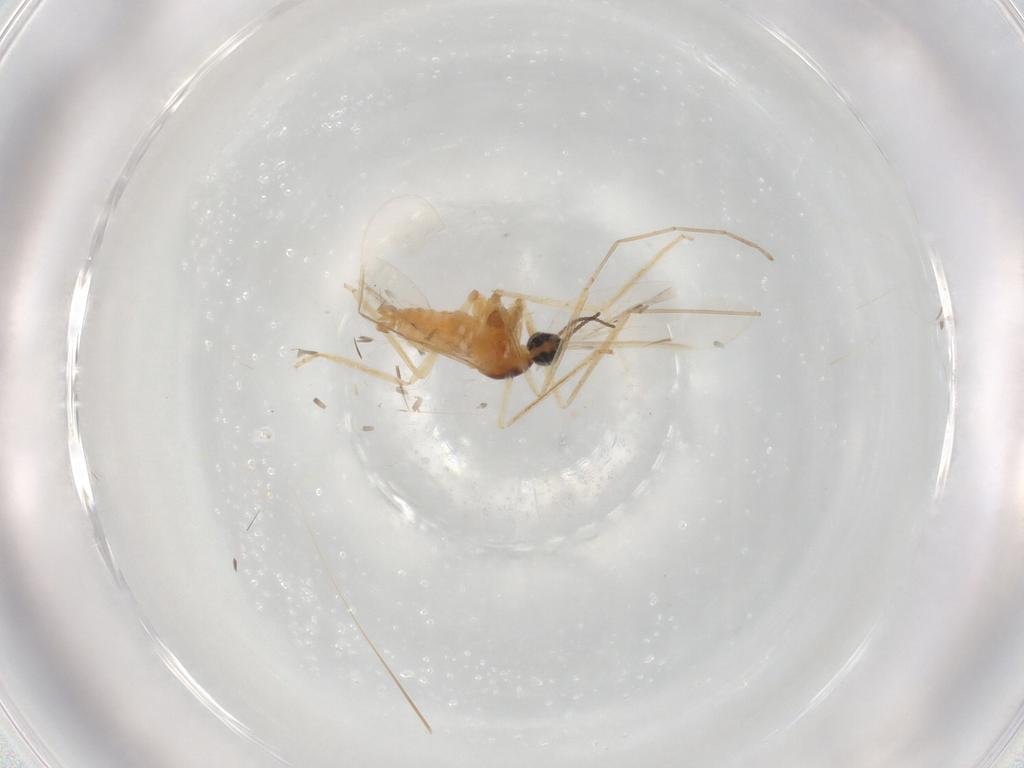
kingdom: Animalia
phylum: Arthropoda
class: Insecta
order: Diptera
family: Cecidomyiidae
